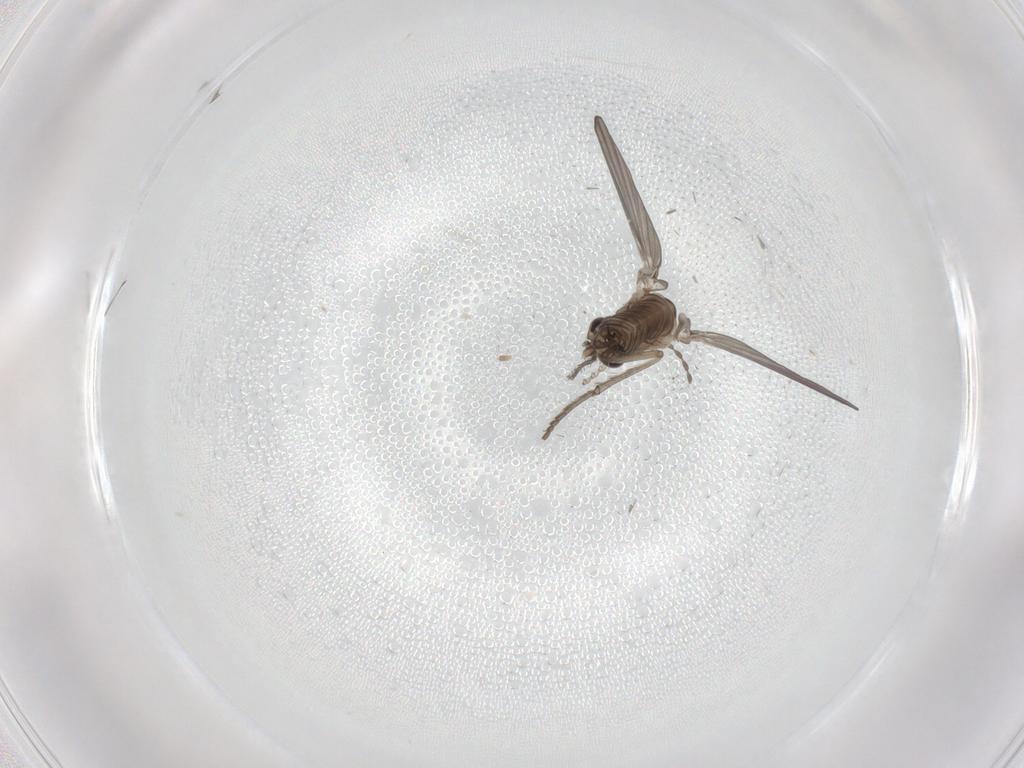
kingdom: Animalia
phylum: Arthropoda
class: Insecta
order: Diptera
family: Psychodidae
